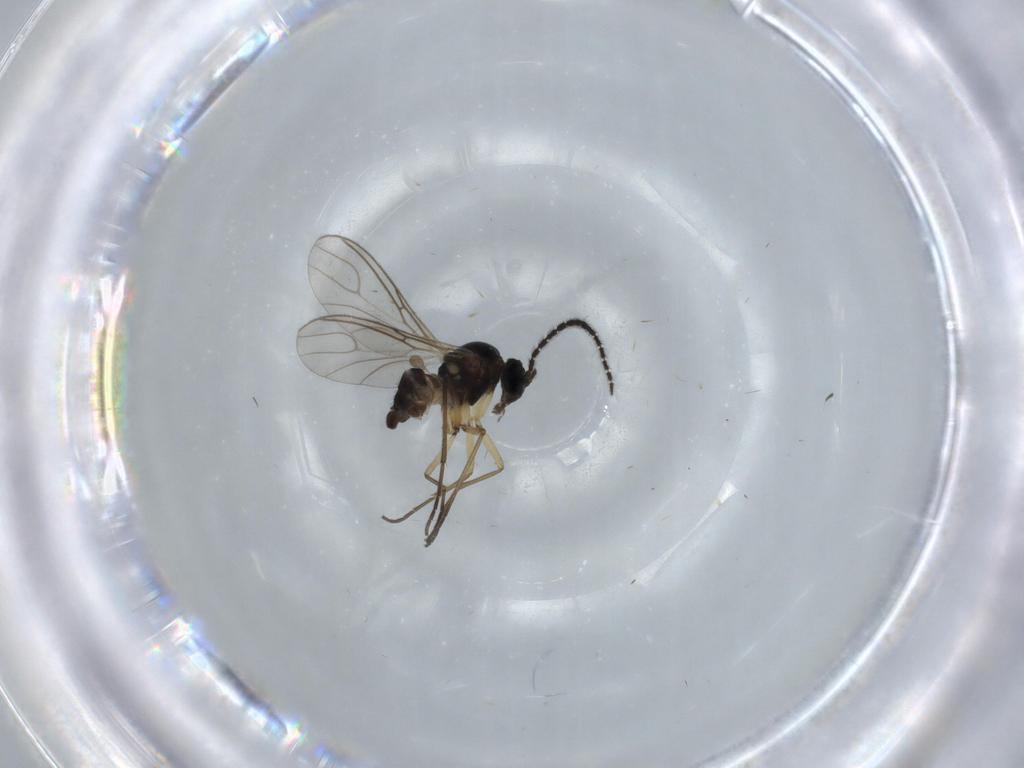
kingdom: Animalia
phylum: Arthropoda
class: Insecta
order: Diptera
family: Sciaridae
